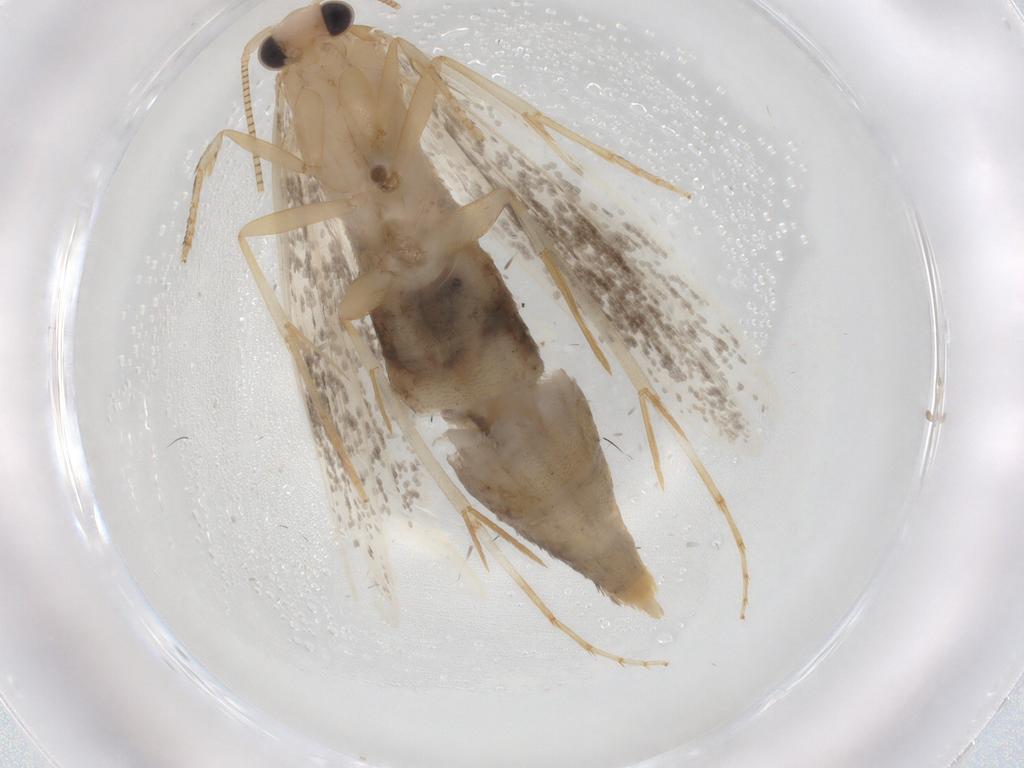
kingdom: Animalia
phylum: Arthropoda
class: Insecta
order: Lepidoptera
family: Nepticulidae
